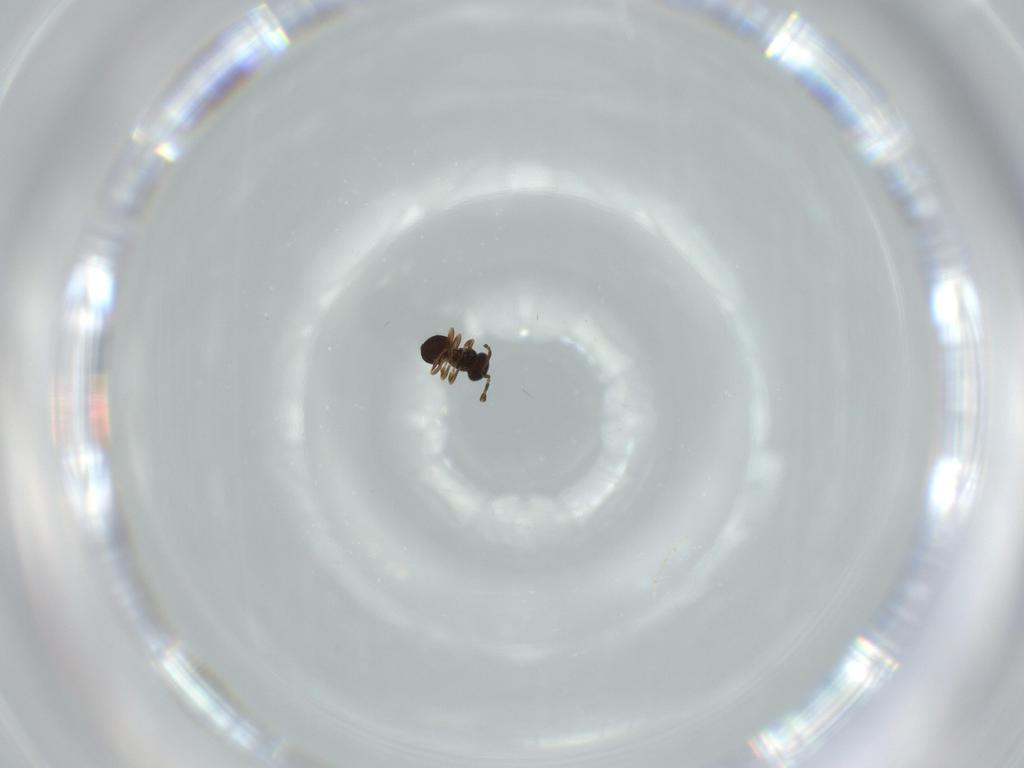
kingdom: Animalia
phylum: Arthropoda
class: Insecta
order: Hymenoptera
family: Scelionidae
